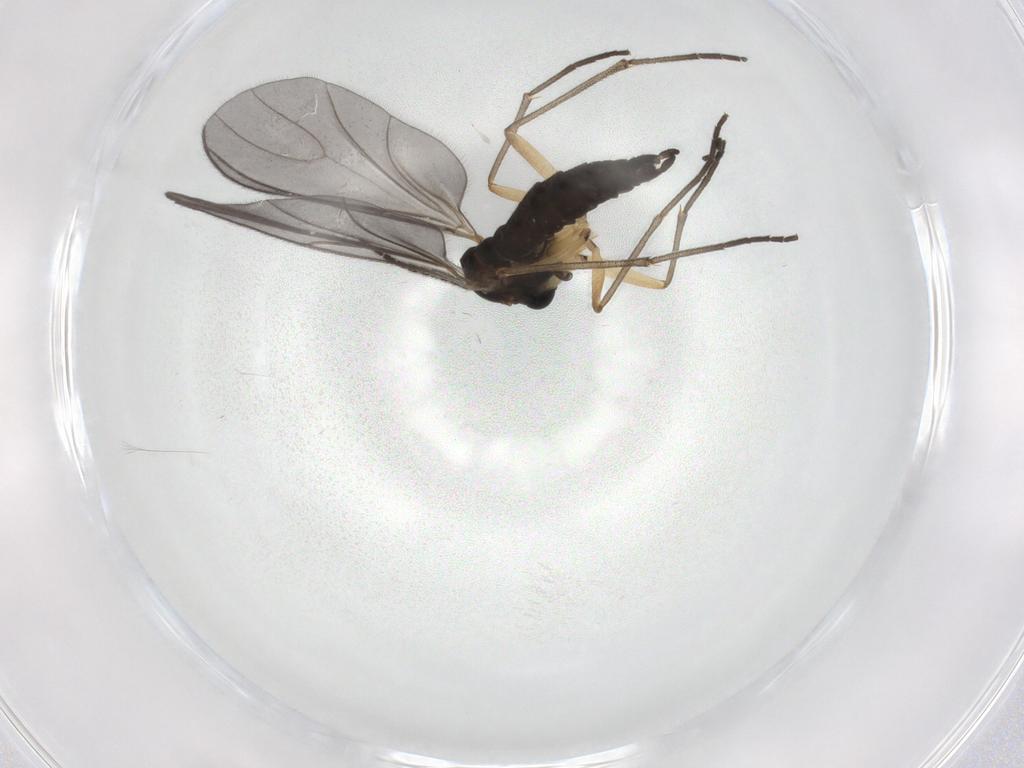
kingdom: Animalia
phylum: Arthropoda
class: Insecta
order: Diptera
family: Sciaridae
